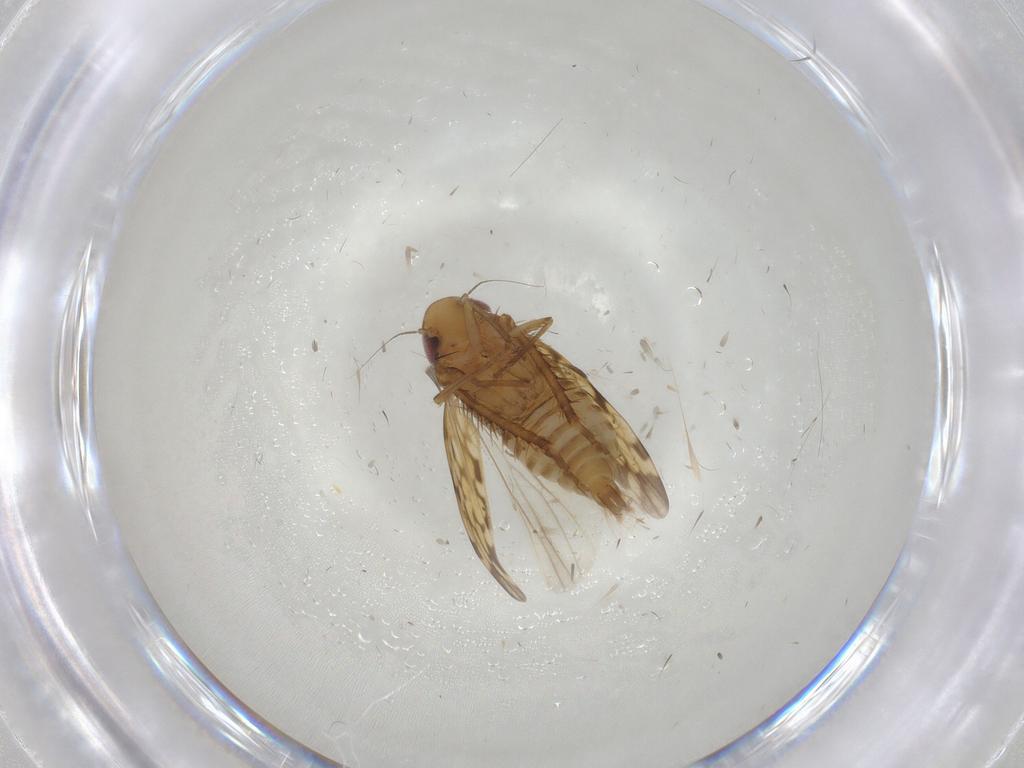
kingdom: Animalia
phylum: Arthropoda
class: Insecta
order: Hemiptera
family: Cicadellidae
